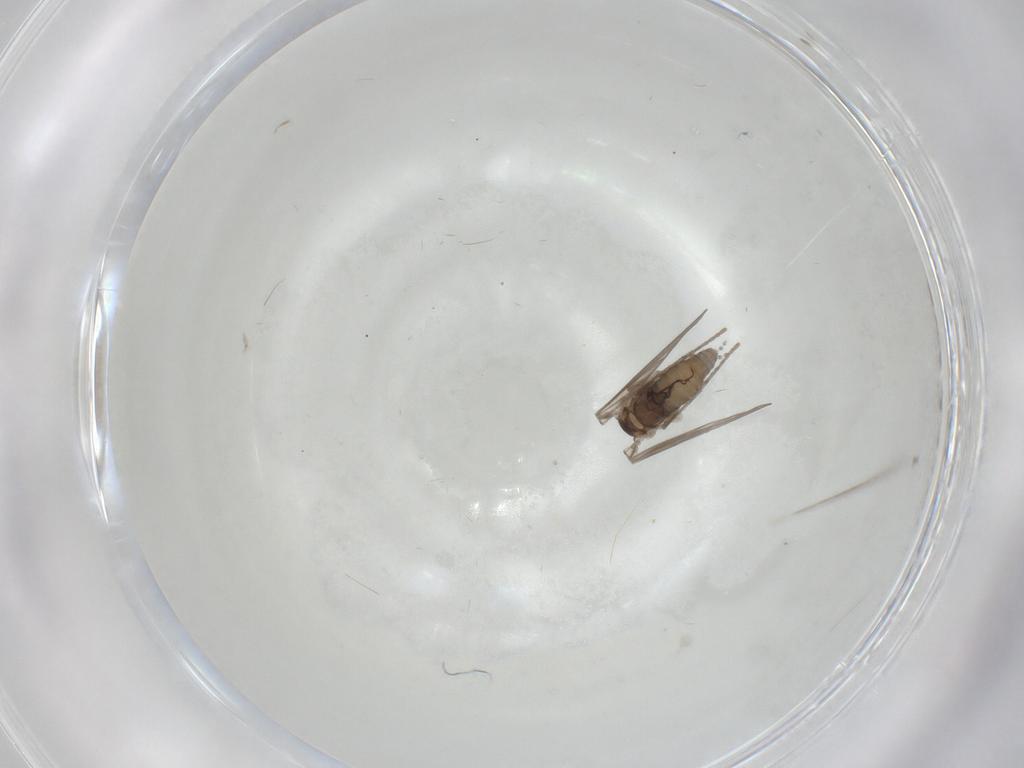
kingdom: Animalia
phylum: Arthropoda
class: Insecta
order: Diptera
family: Psychodidae
